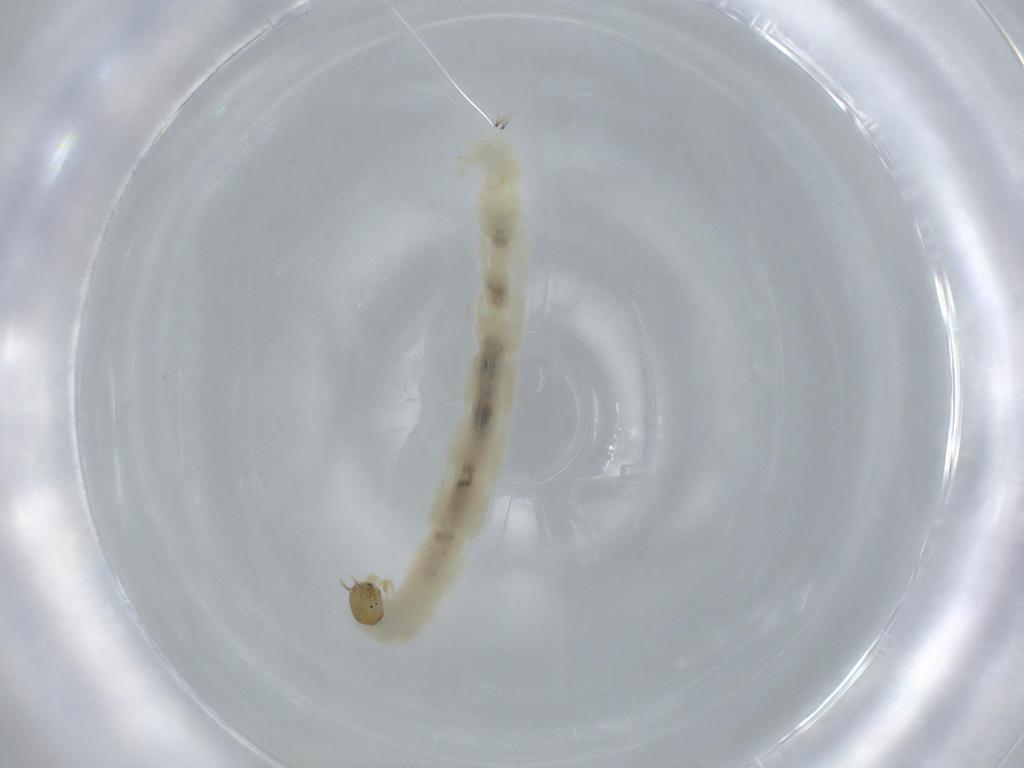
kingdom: Animalia
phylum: Arthropoda
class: Insecta
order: Diptera
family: Chironomidae
